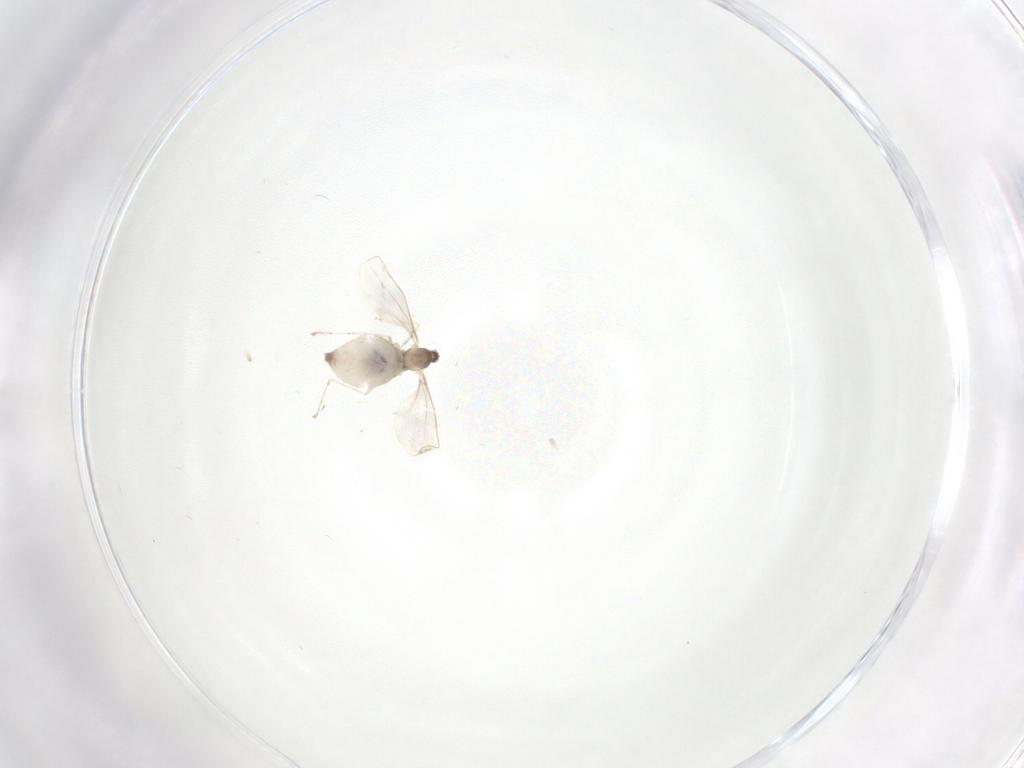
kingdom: Animalia
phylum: Arthropoda
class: Insecta
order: Diptera
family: Cecidomyiidae
